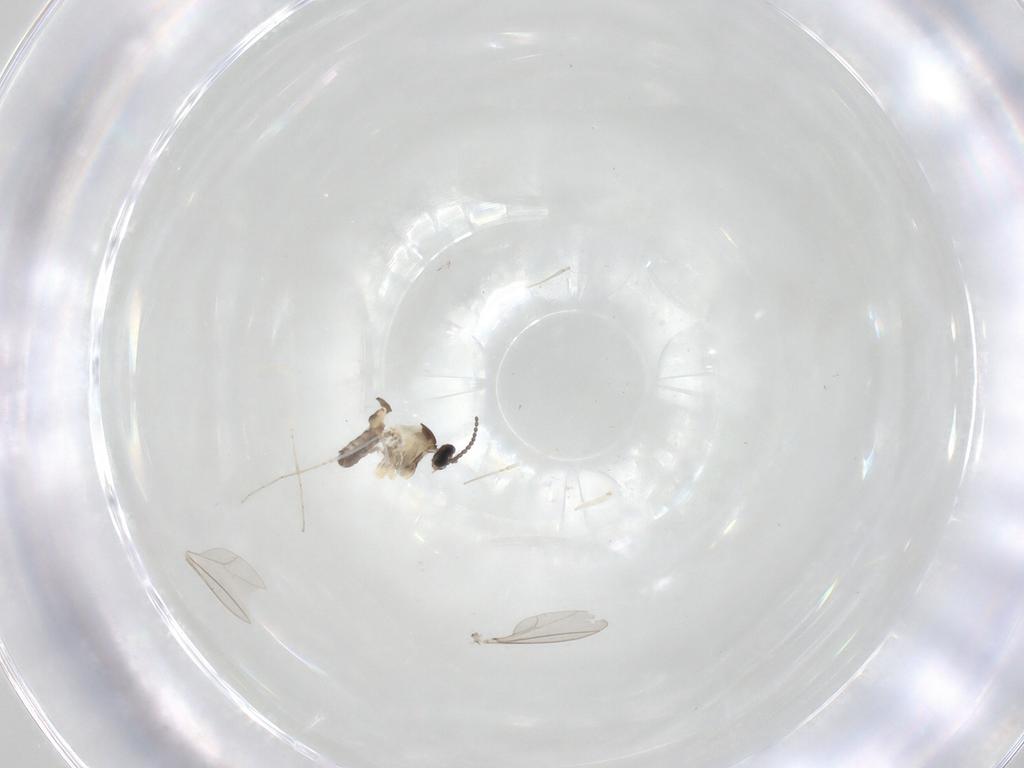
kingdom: Animalia
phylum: Arthropoda
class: Insecta
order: Diptera
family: Cecidomyiidae
